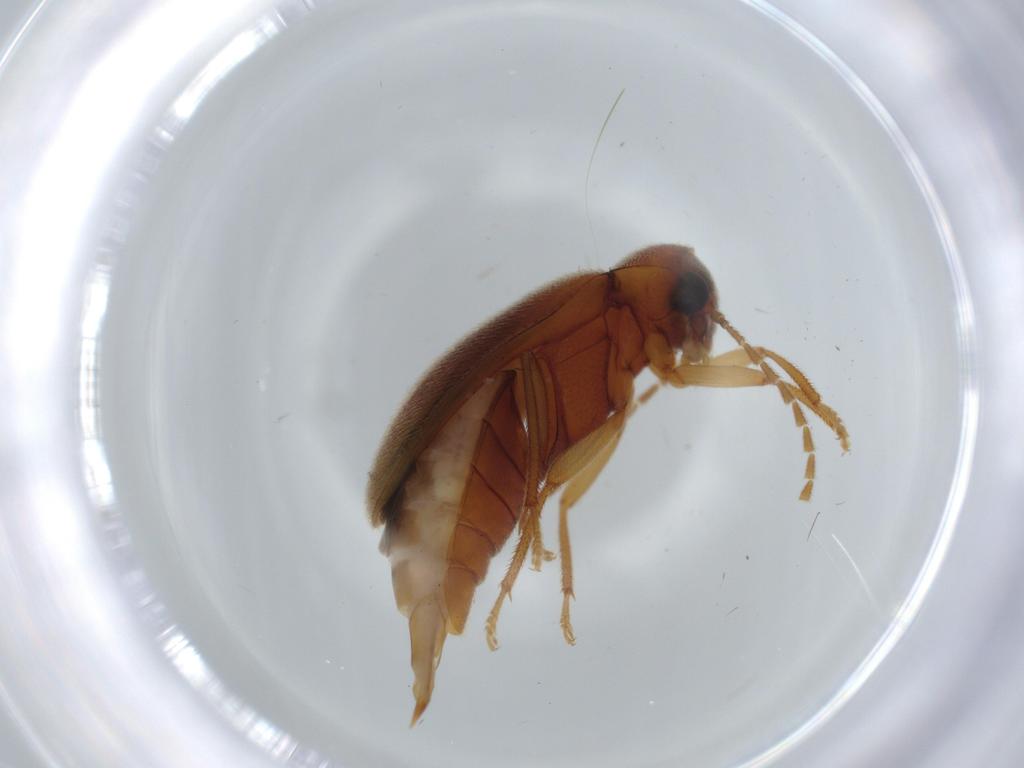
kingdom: Animalia
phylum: Arthropoda
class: Insecta
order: Coleoptera
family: Ptilodactylidae
